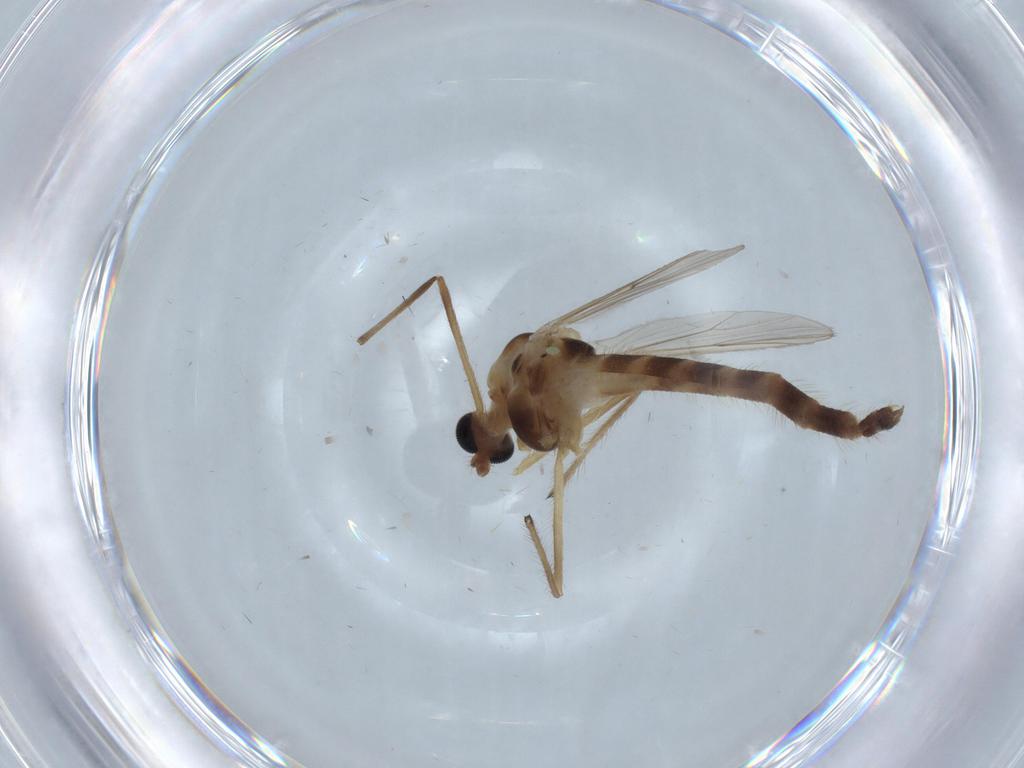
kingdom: Animalia
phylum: Arthropoda
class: Insecta
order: Diptera
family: Chironomidae
